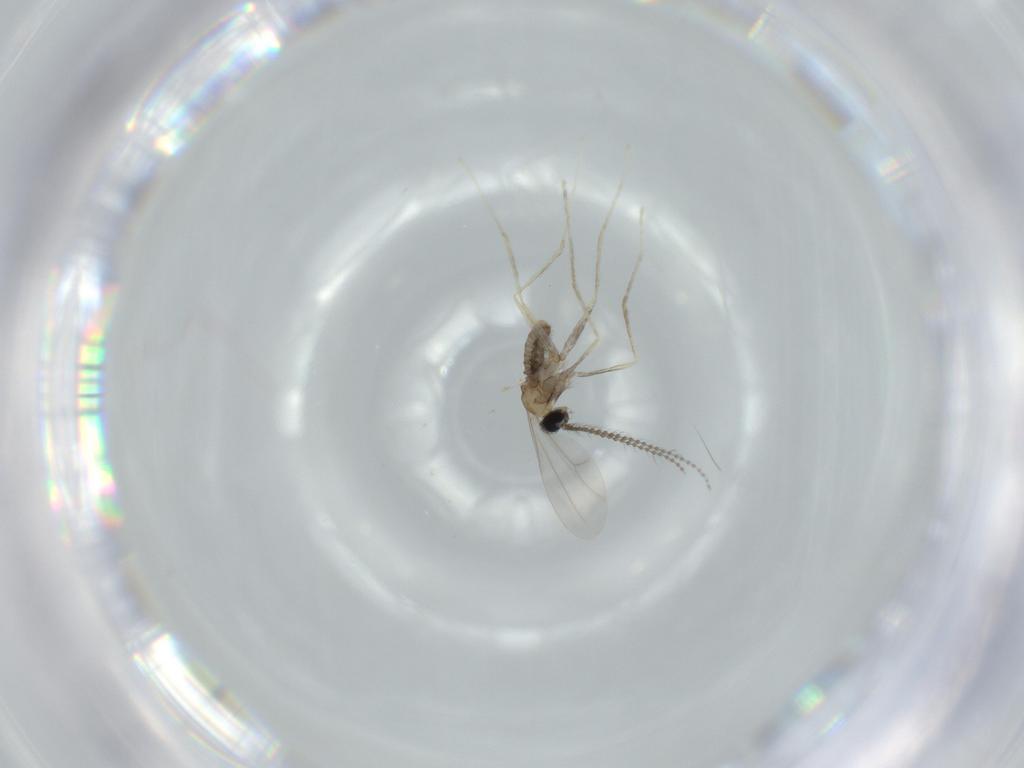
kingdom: Animalia
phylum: Arthropoda
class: Insecta
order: Diptera
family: Cecidomyiidae
